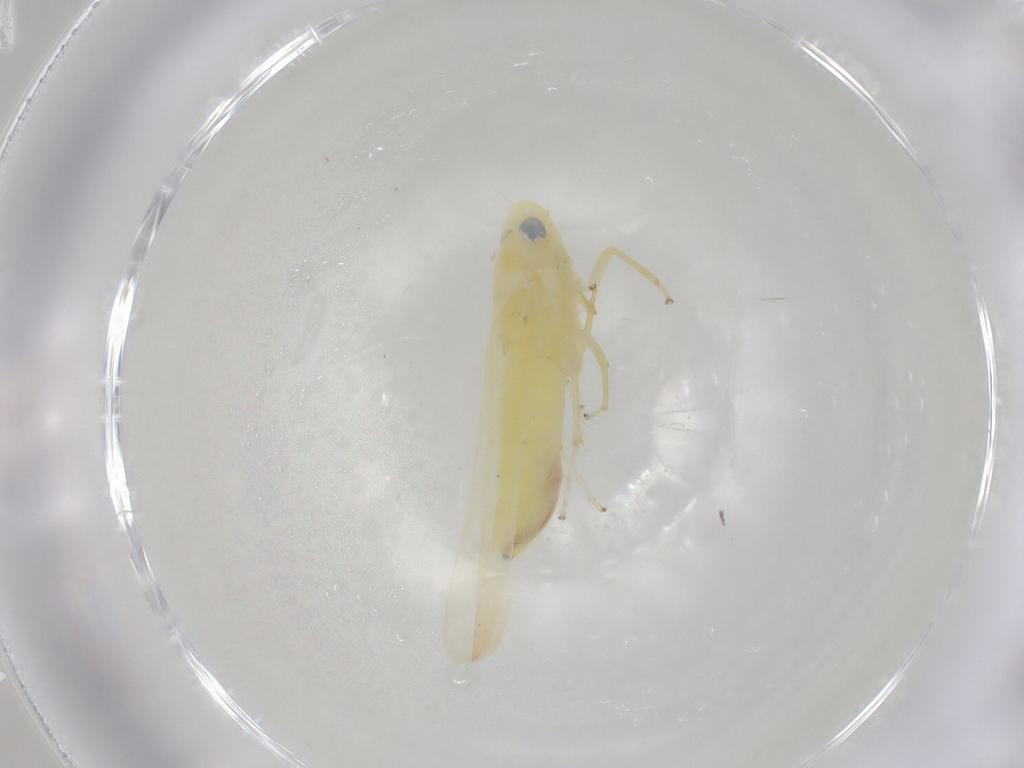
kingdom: Animalia
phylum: Arthropoda
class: Insecta
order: Hemiptera
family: Cicadellidae
